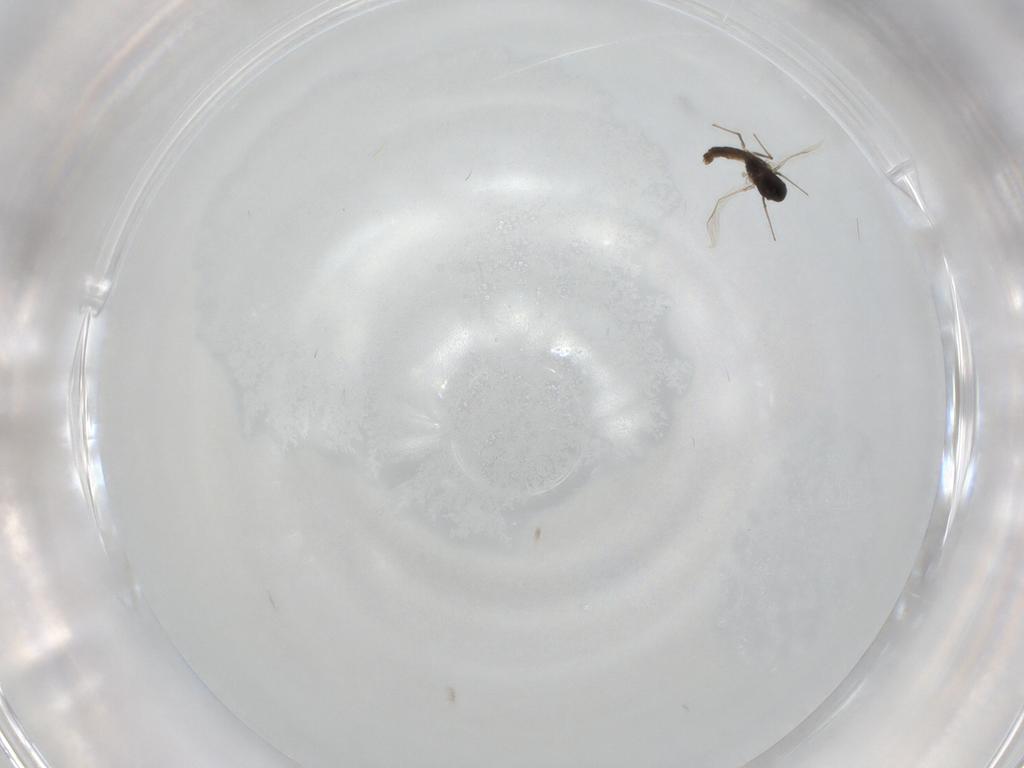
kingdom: Animalia
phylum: Arthropoda
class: Insecta
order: Diptera
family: Chironomidae
